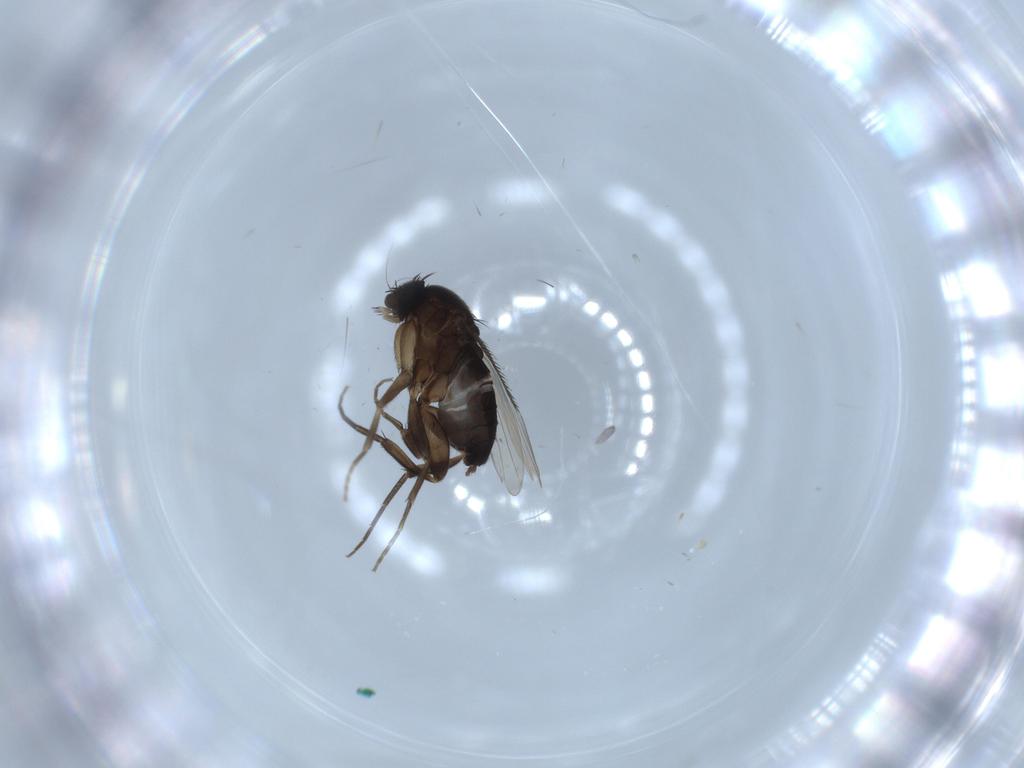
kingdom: Animalia
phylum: Arthropoda
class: Insecta
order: Diptera
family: Phoridae
